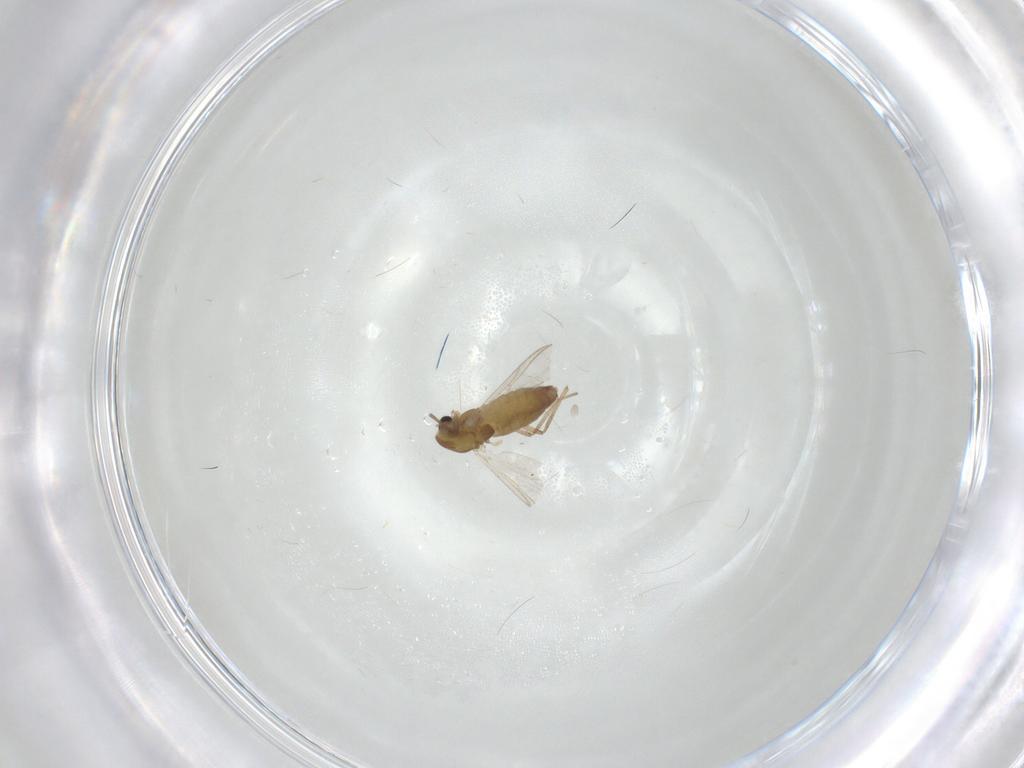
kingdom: Animalia
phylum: Arthropoda
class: Insecta
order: Diptera
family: Chironomidae
